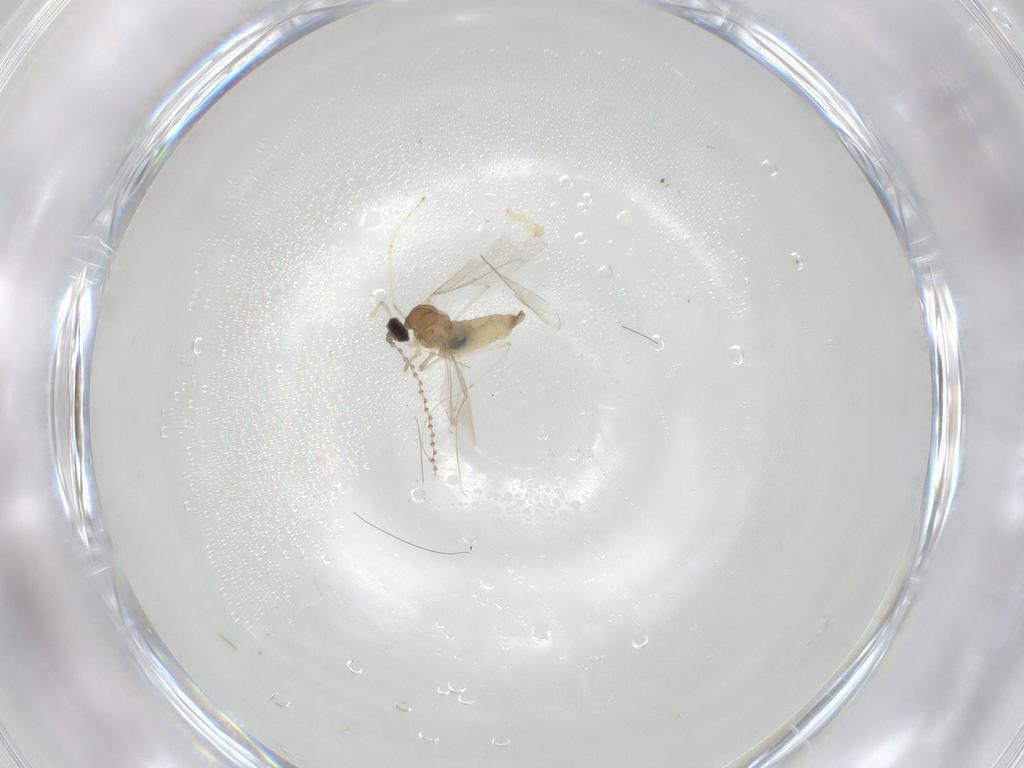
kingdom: Animalia
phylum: Arthropoda
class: Insecta
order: Diptera
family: Cecidomyiidae
